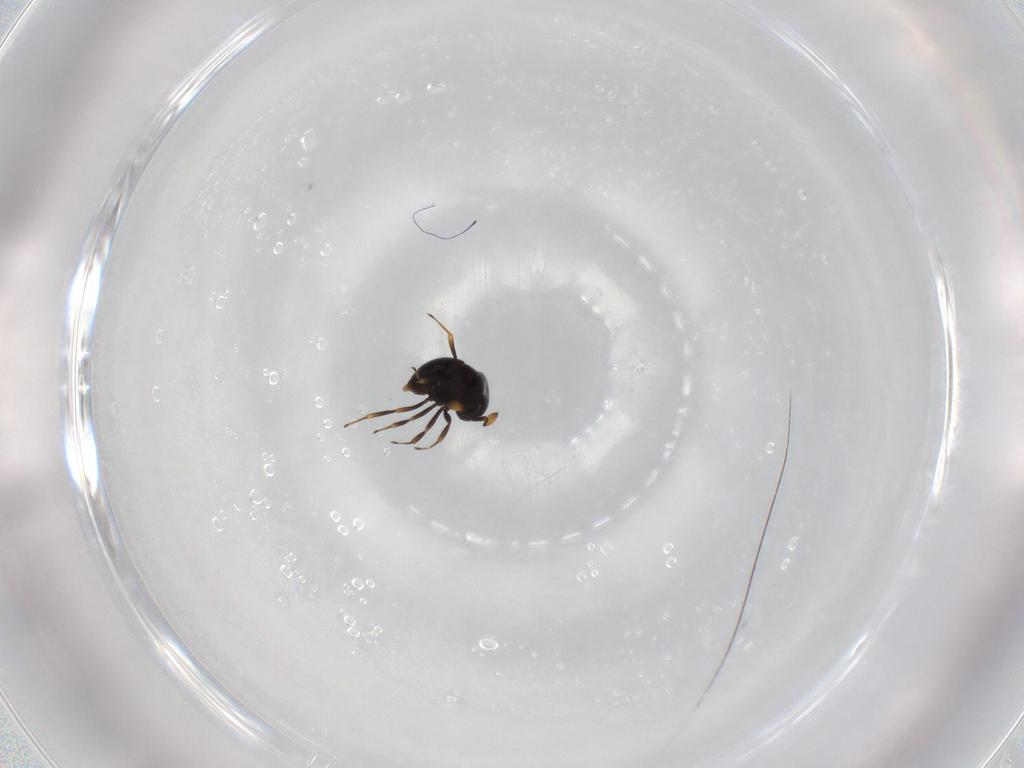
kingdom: Animalia
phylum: Arthropoda
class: Insecta
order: Hymenoptera
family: Scelionidae
